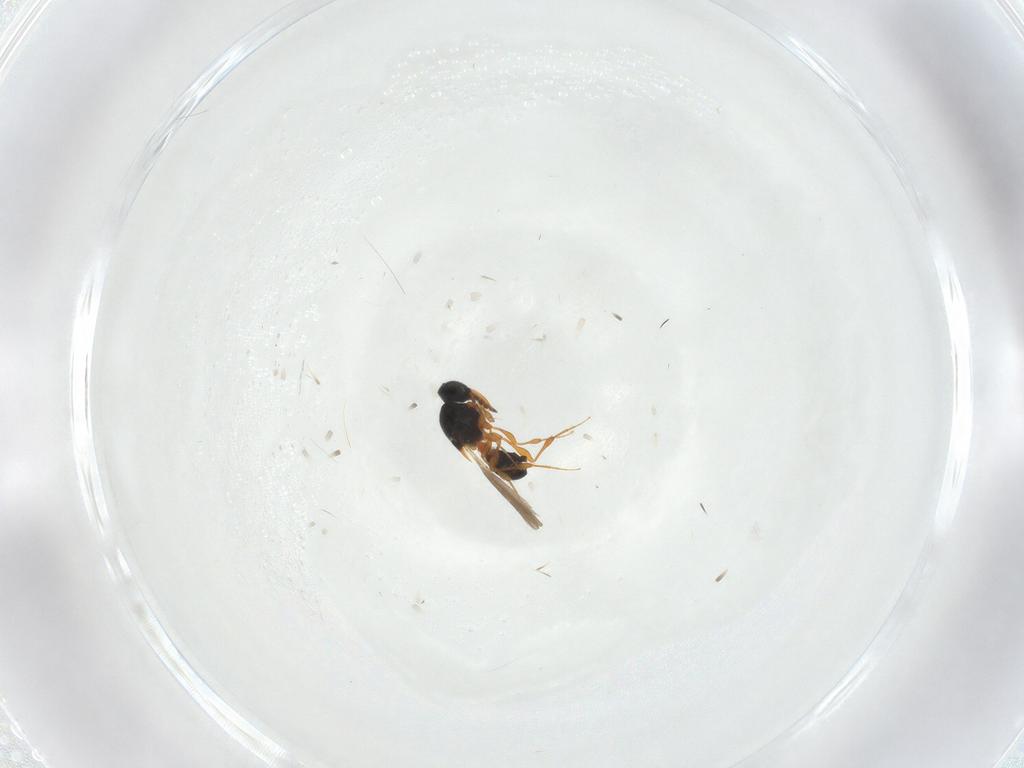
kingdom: Animalia
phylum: Arthropoda
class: Insecta
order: Hymenoptera
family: Platygastridae
